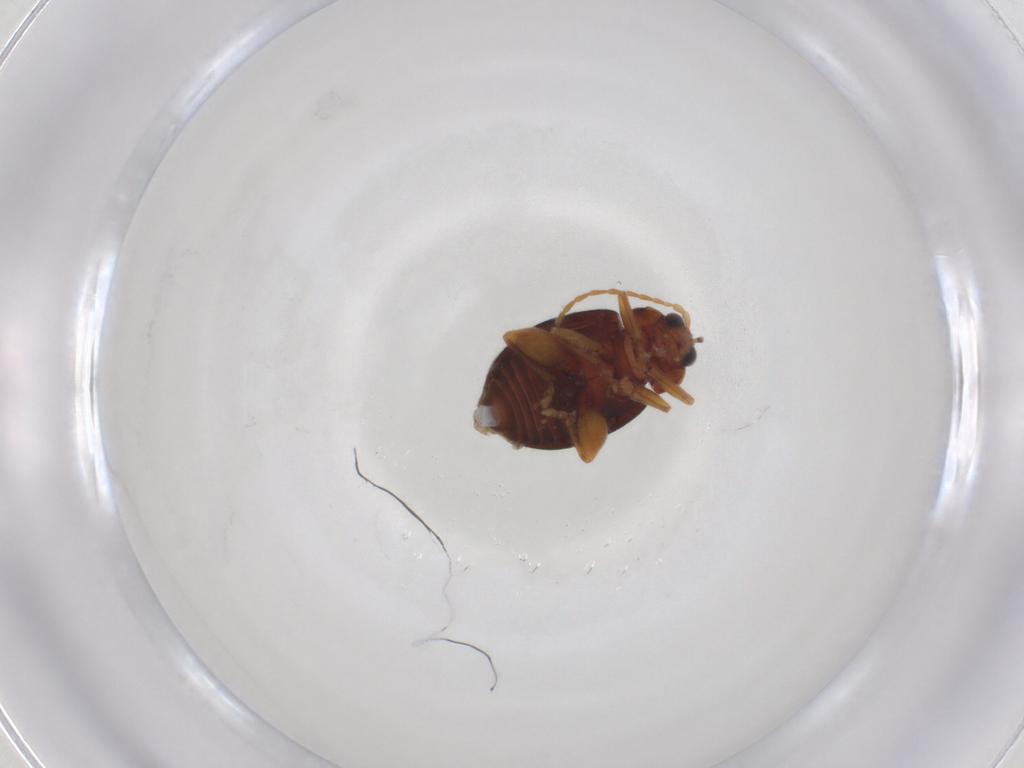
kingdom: Animalia
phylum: Arthropoda
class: Insecta
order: Coleoptera
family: Chrysomelidae
